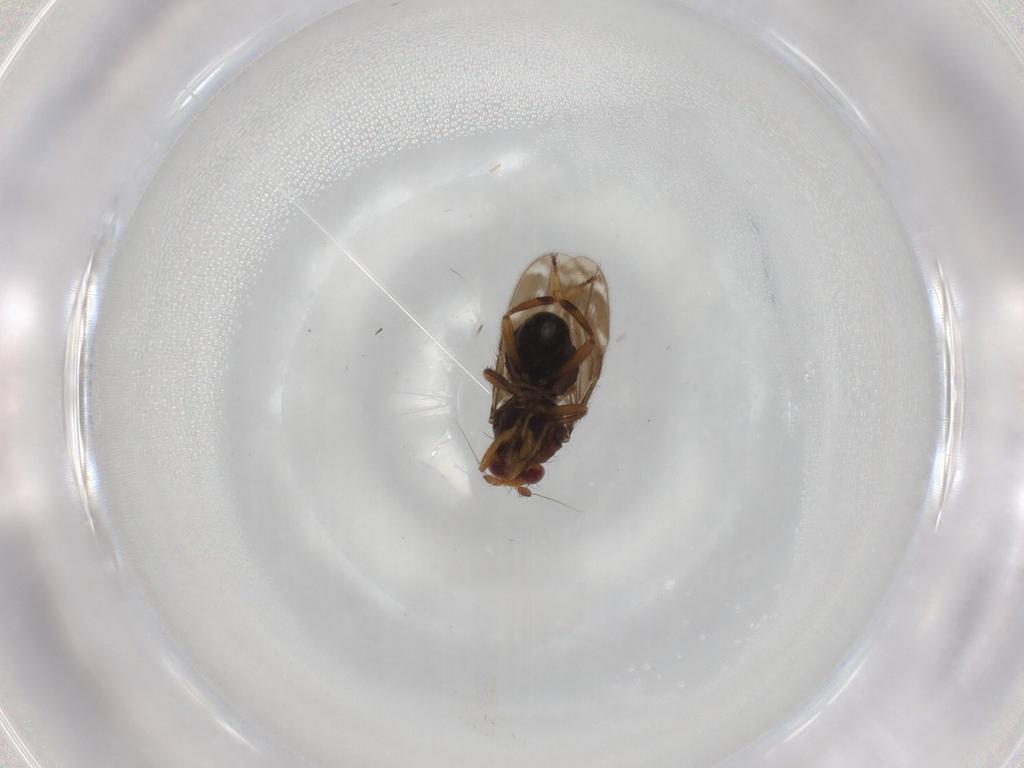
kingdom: Animalia
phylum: Arthropoda
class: Insecta
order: Diptera
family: Sphaeroceridae
